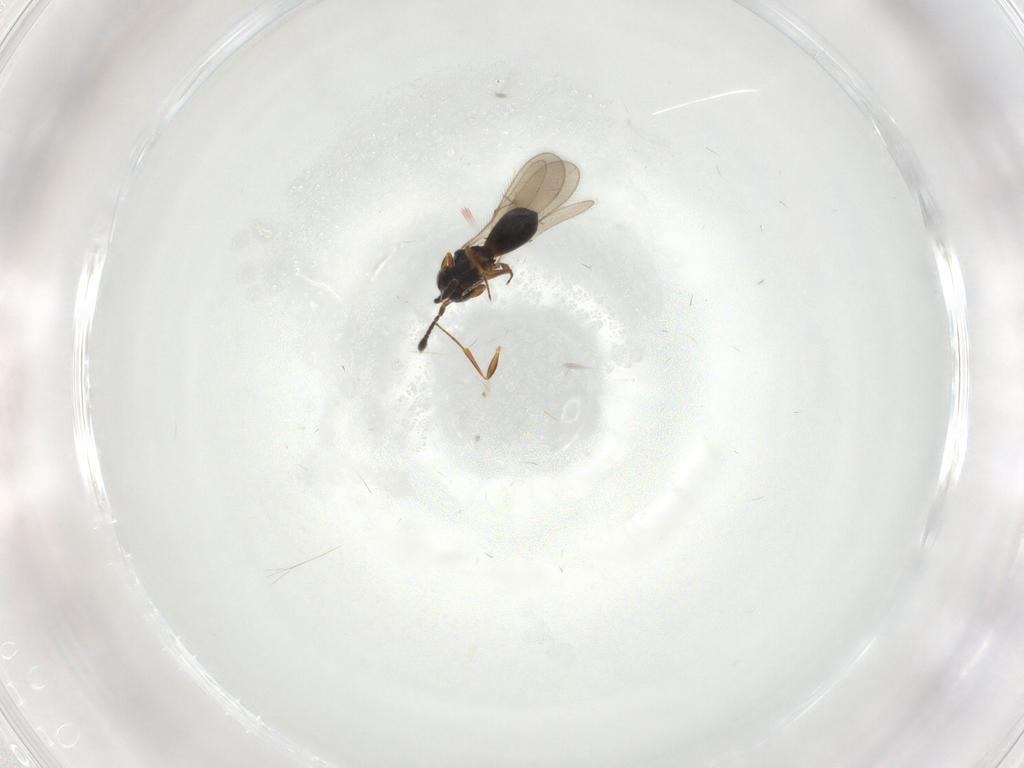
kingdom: Animalia
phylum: Arthropoda
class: Insecta
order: Hymenoptera
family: Scelionidae
